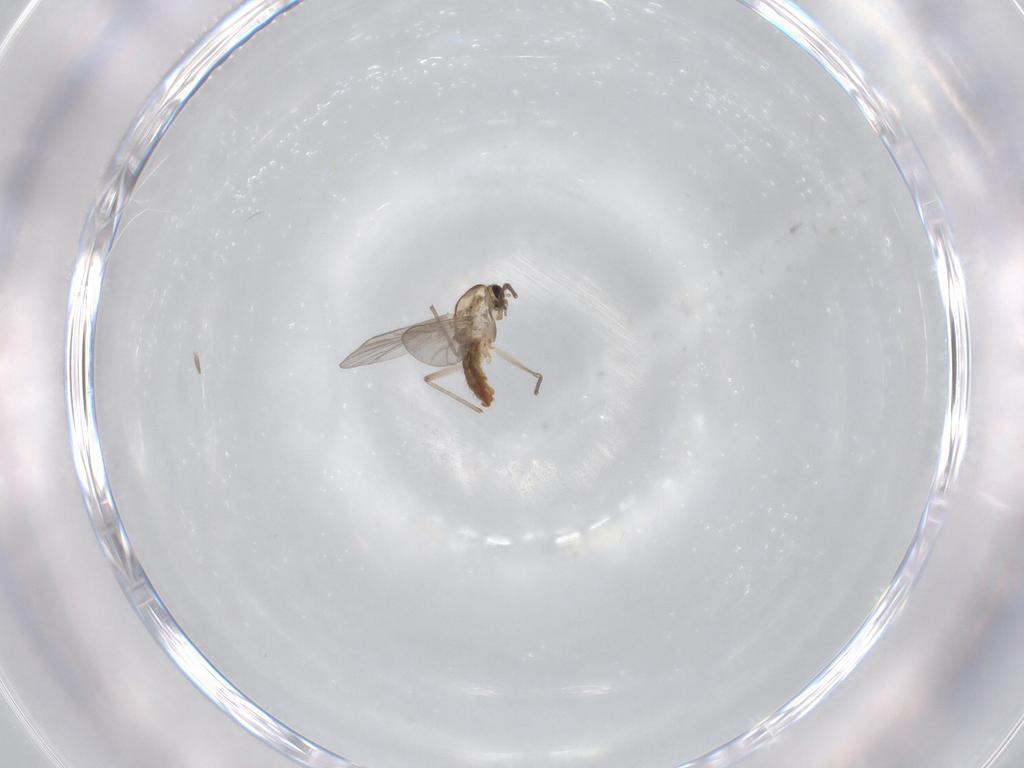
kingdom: Animalia
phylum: Arthropoda
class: Insecta
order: Diptera
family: Chironomidae
